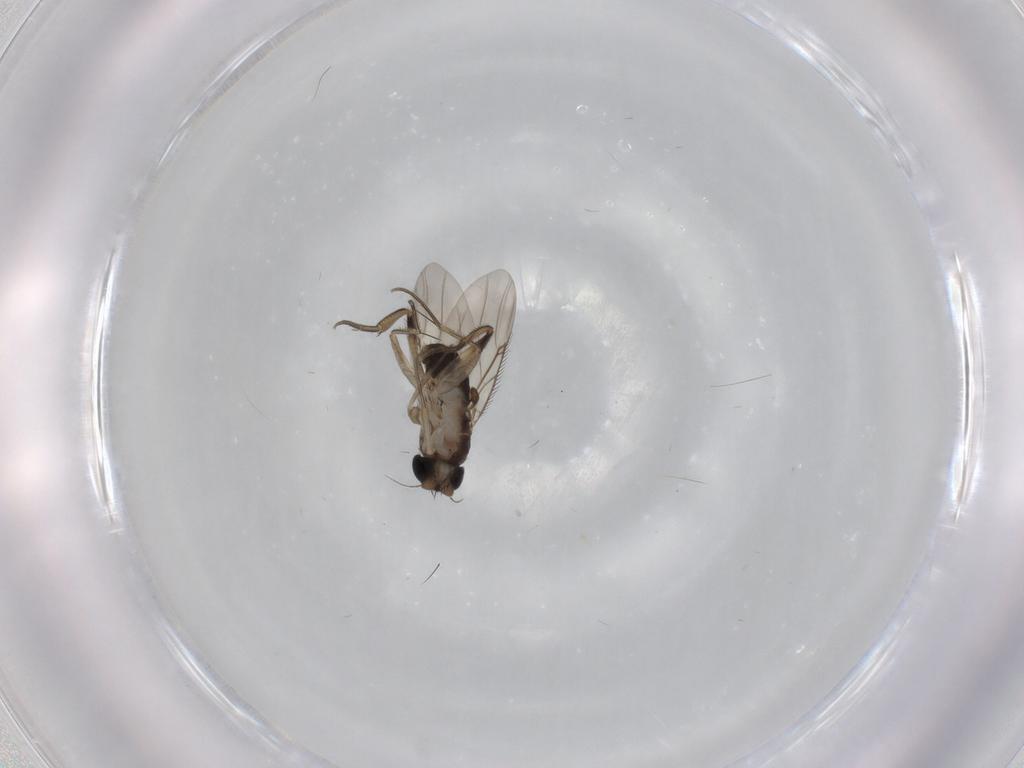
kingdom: Animalia
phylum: Arthropoda
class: Insecta
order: Diptera
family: Phoridae
